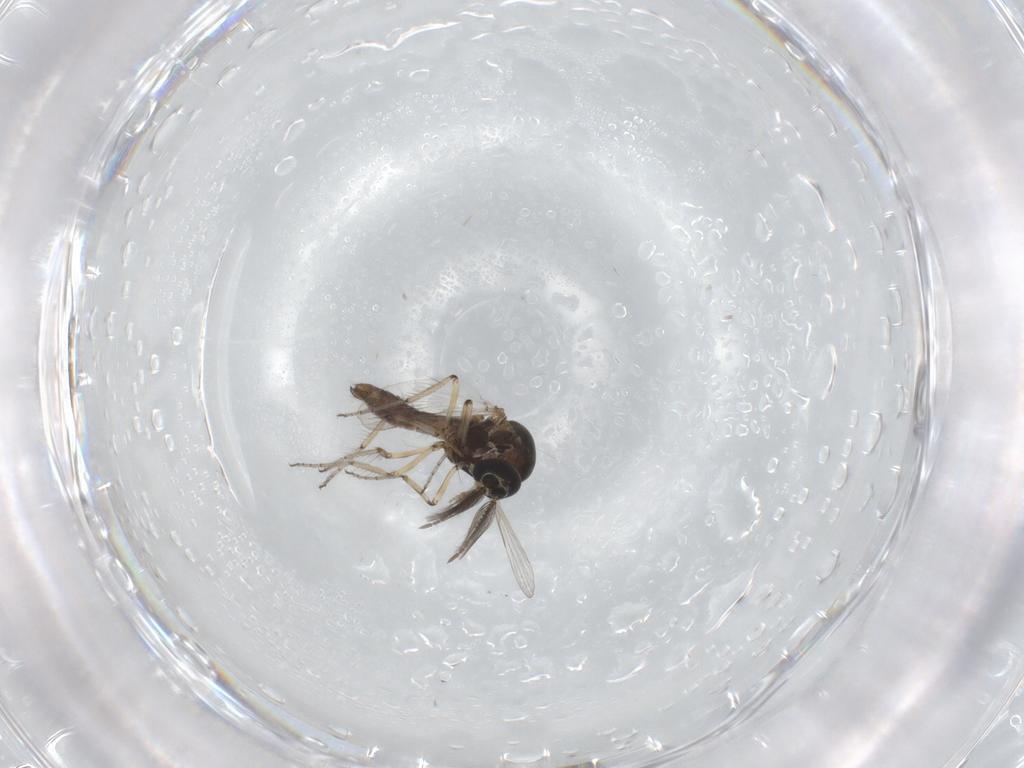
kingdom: Animalia
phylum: Arthropoda
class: Insecta
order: Diptera
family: Ceratopogonidae
